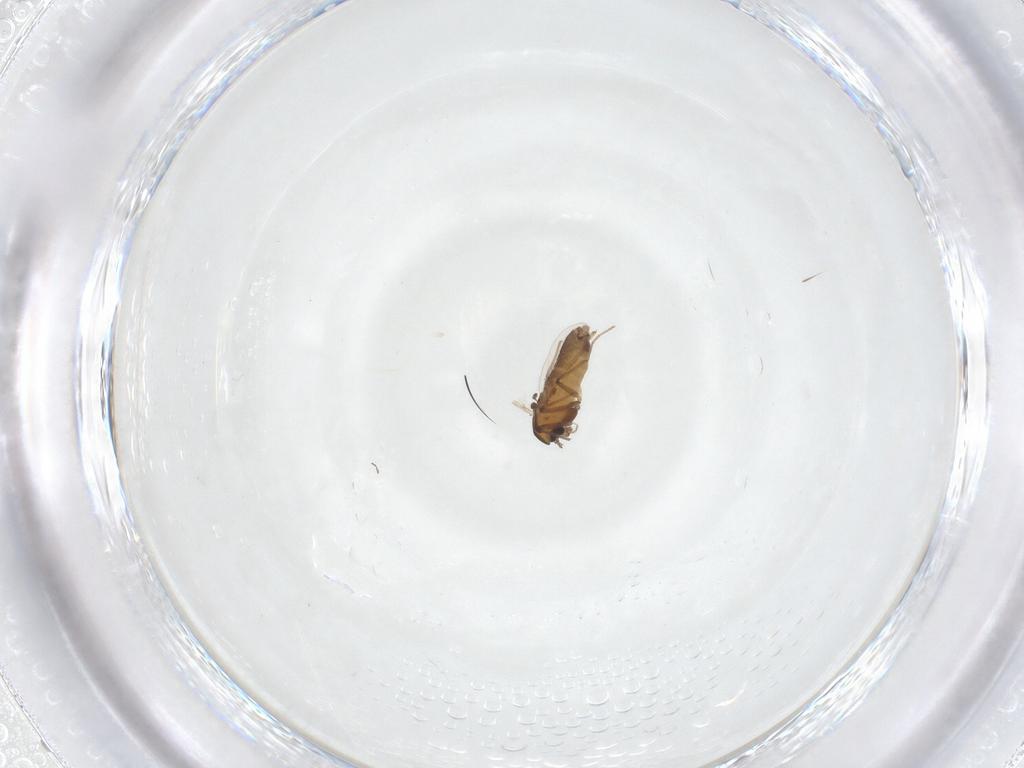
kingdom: Animalia
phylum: Arthropoda
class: Insecta
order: Diptera
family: Chironomidae
